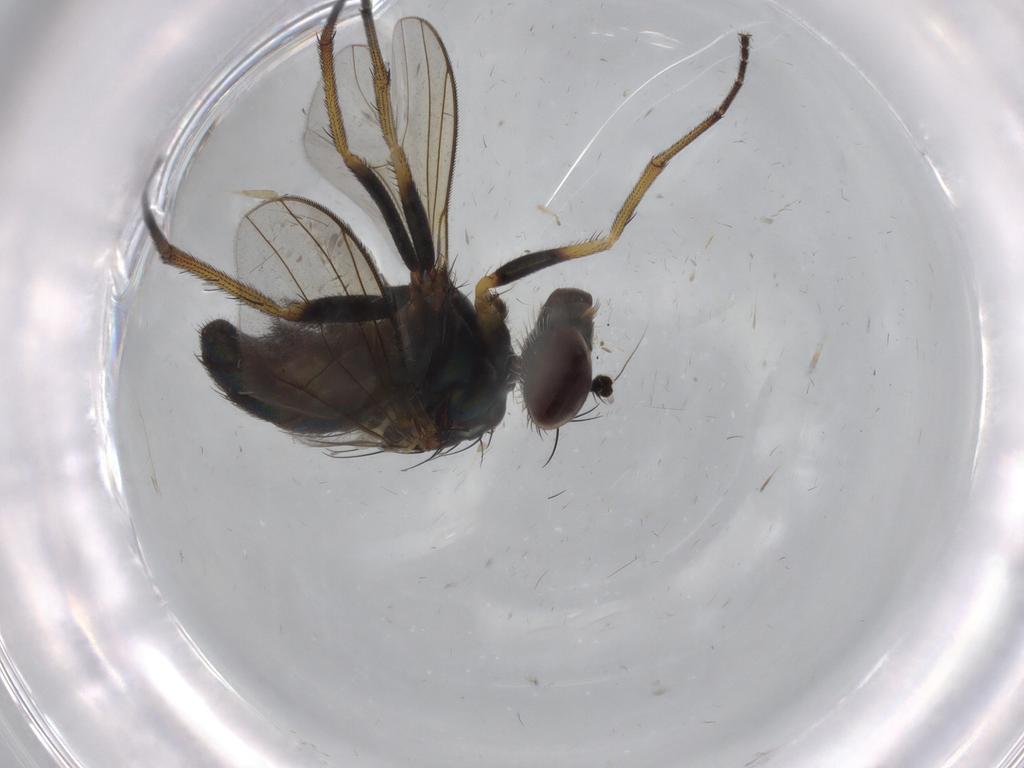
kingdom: Animalia
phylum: Arthropoda
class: Insecta
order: Diptera
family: Dolichopodidae
